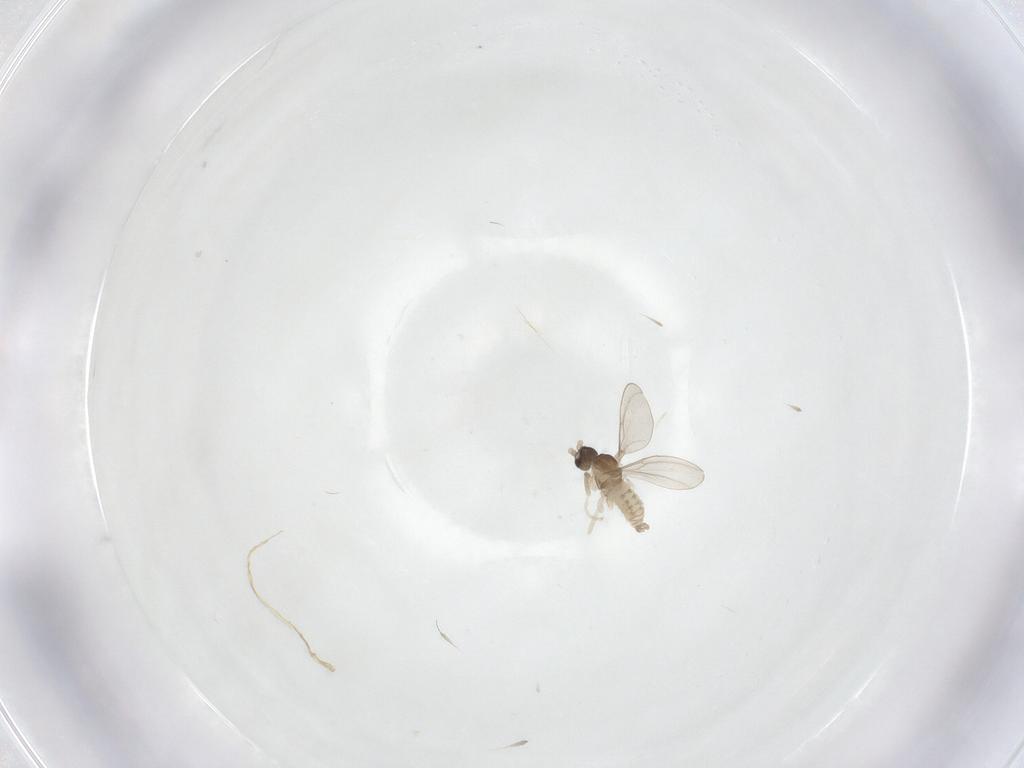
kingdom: Animalia
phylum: Arthropoda
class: Insecta
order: Diptera
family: Cecidomyiidae
